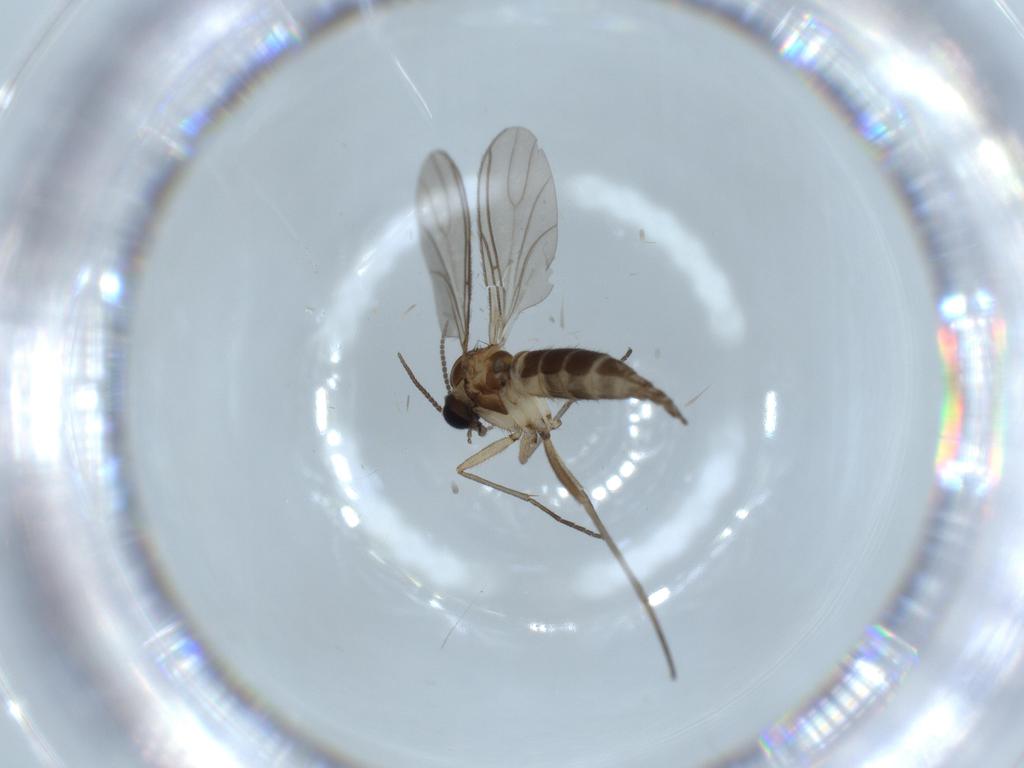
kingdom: Animalia
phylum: Arthropoda
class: Insecta
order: Diptera
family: Sciaridae
